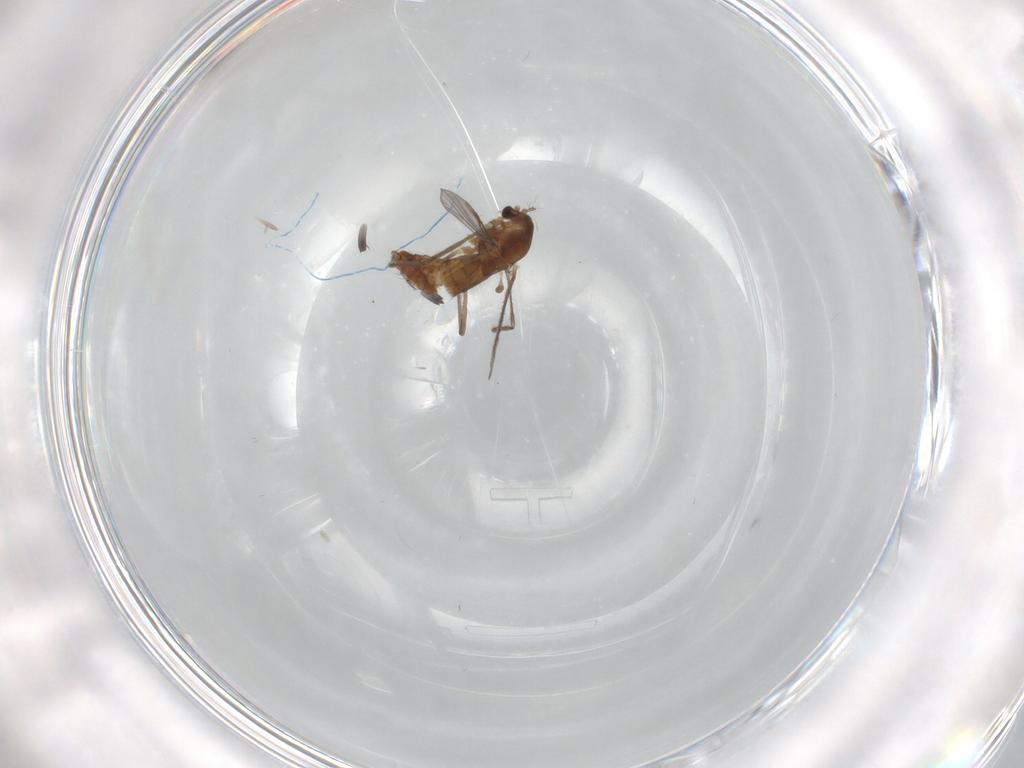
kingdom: Animalia
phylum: Arthropoda
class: Insecta
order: Diptera
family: Chironomidae
